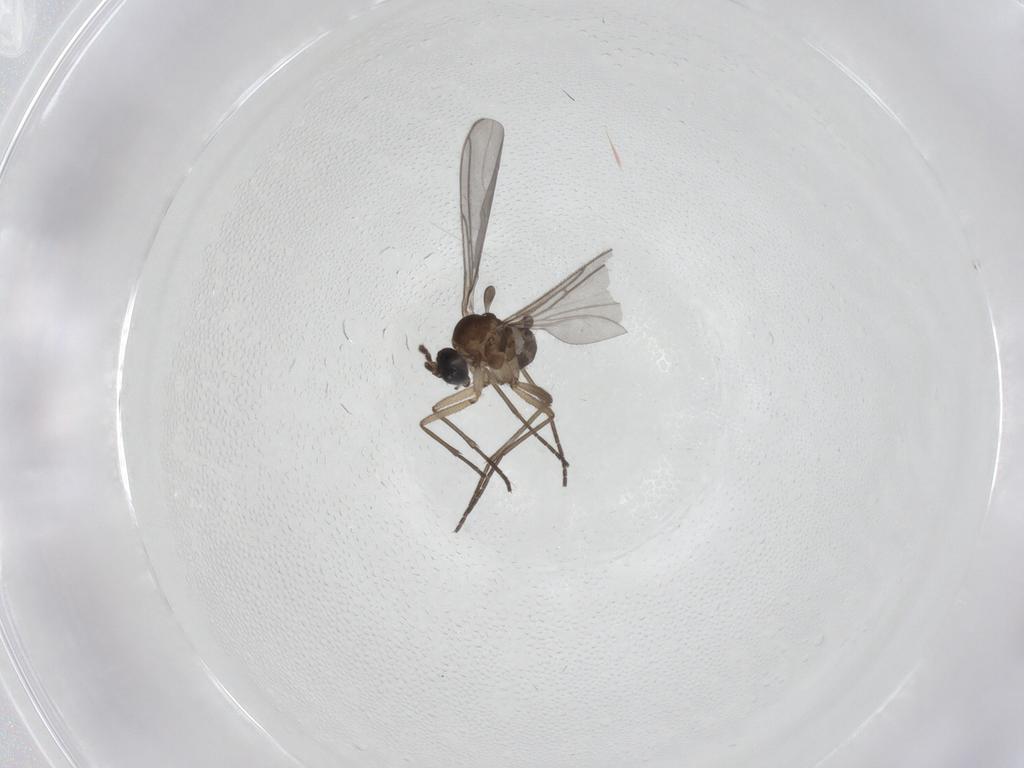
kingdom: Animalia
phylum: Arthropoda
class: Insecta
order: Diptera
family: Sciaridae
